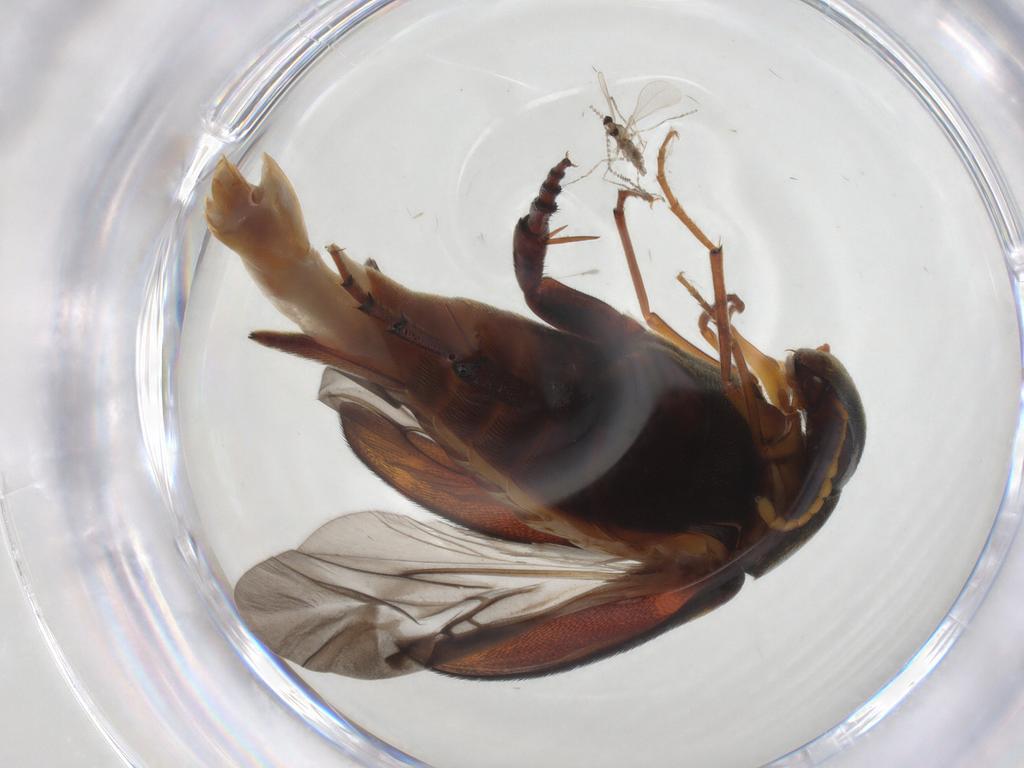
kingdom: Animalia
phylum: Arthropoda
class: Insecta
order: Diptera
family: Cecidomyiidae
